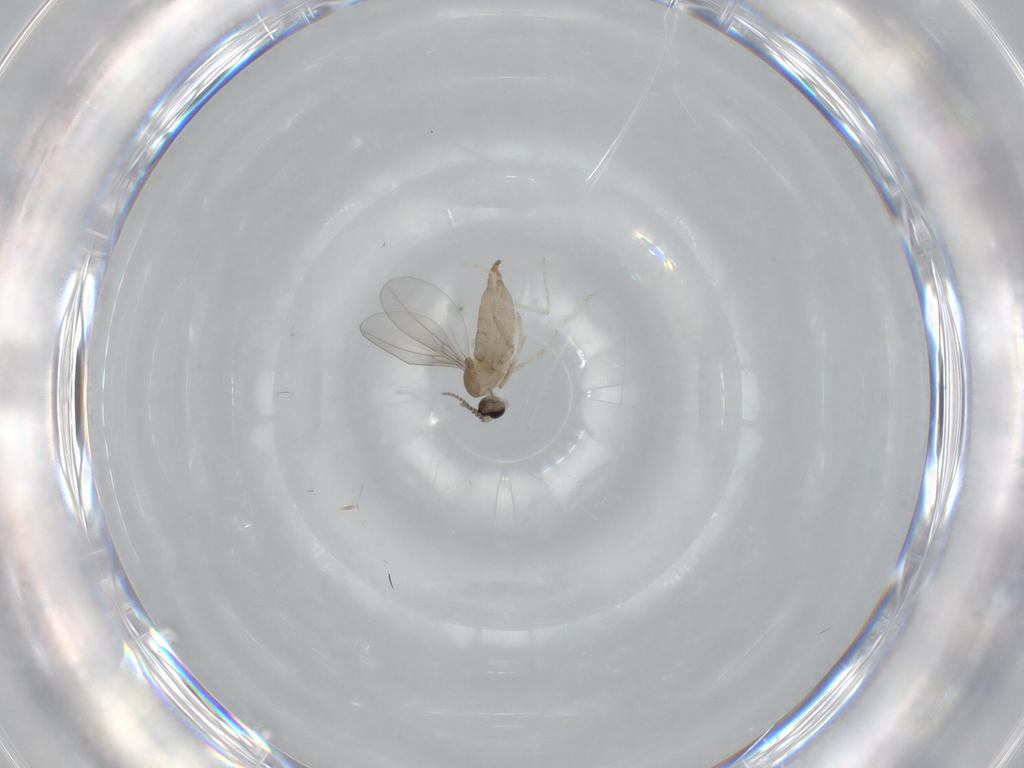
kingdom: Animalia
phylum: Arthropoda
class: Insecta
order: Diptera
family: Cecidomyiidae
